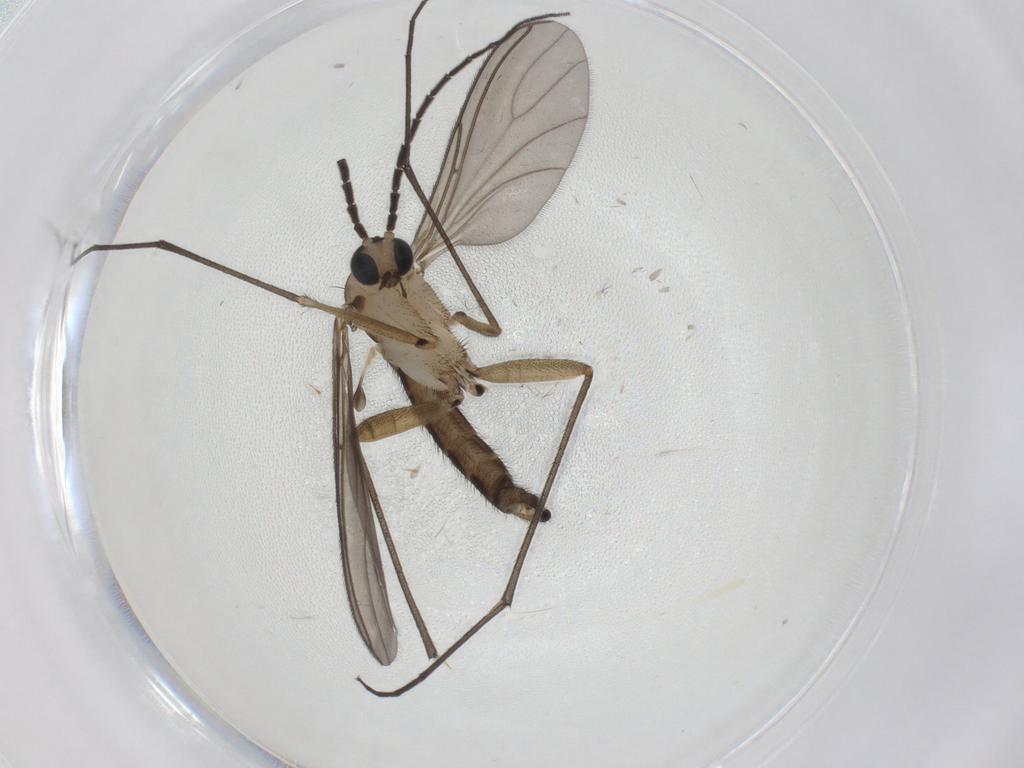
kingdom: Animalia
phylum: Arthropoda
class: Insecta
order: Diptera
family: Sciaridae
